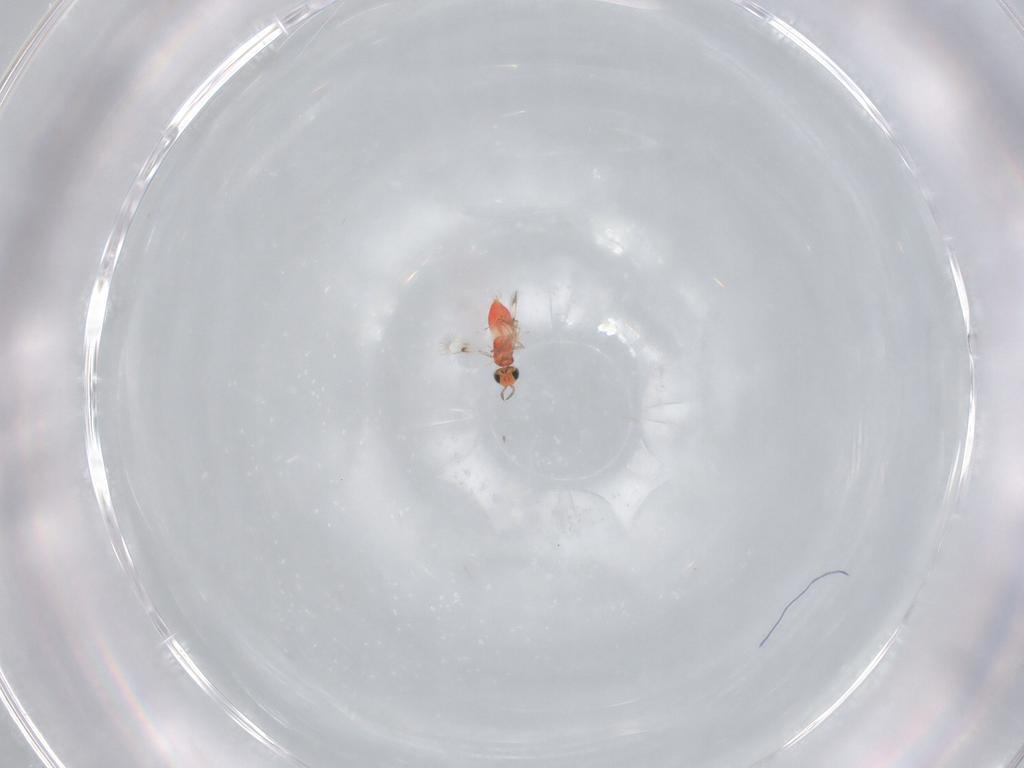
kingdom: Animalia
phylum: Arthropoda
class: Insecta
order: Hymenoptera
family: Trichogrammatidae
